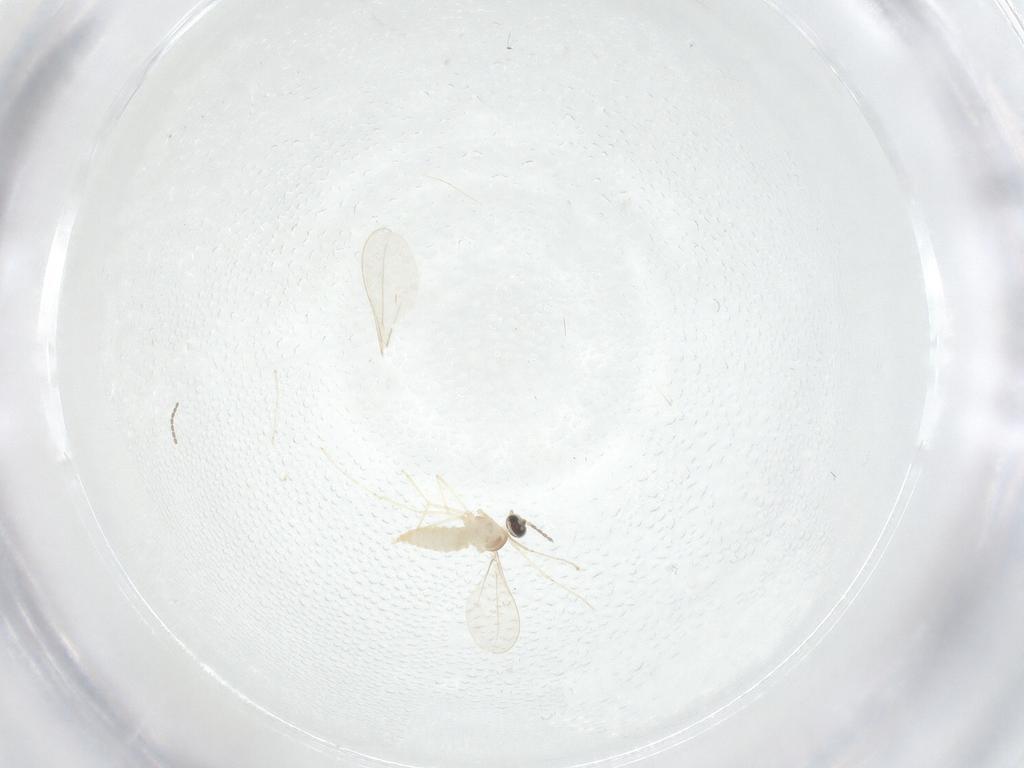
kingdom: Animalia
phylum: Arthropoda
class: Insecta
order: Diptera
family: Cecidomyiidae
